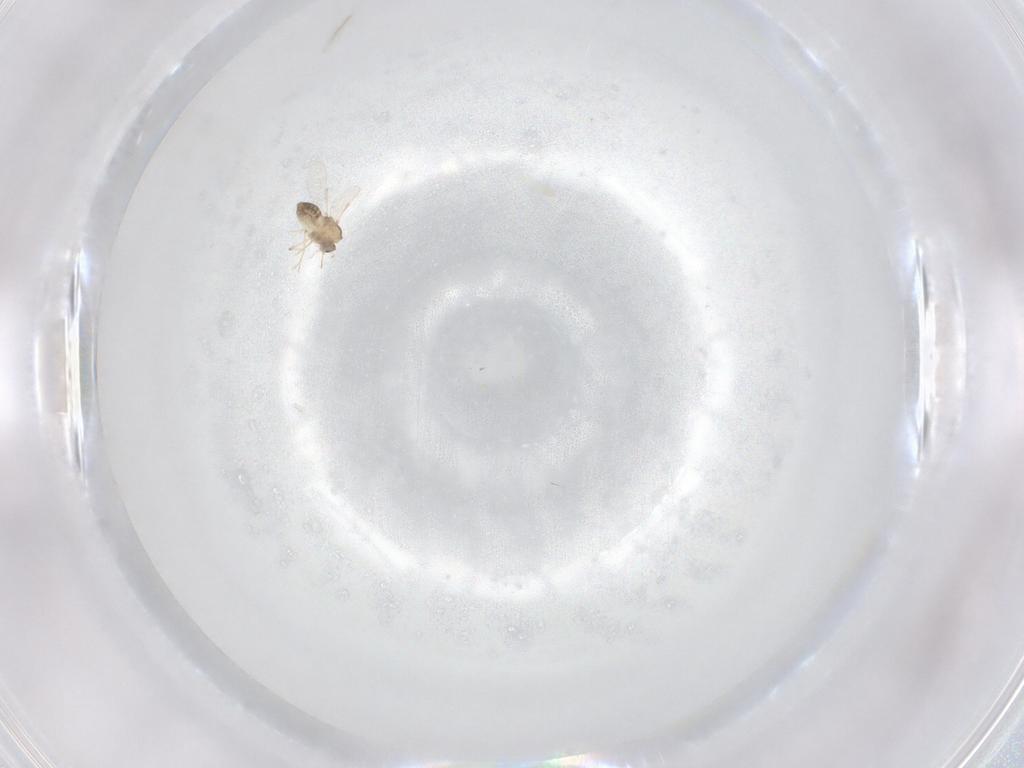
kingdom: Animalia
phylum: Arthropoda
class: Insecta
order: Diptera
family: Chironomidae
